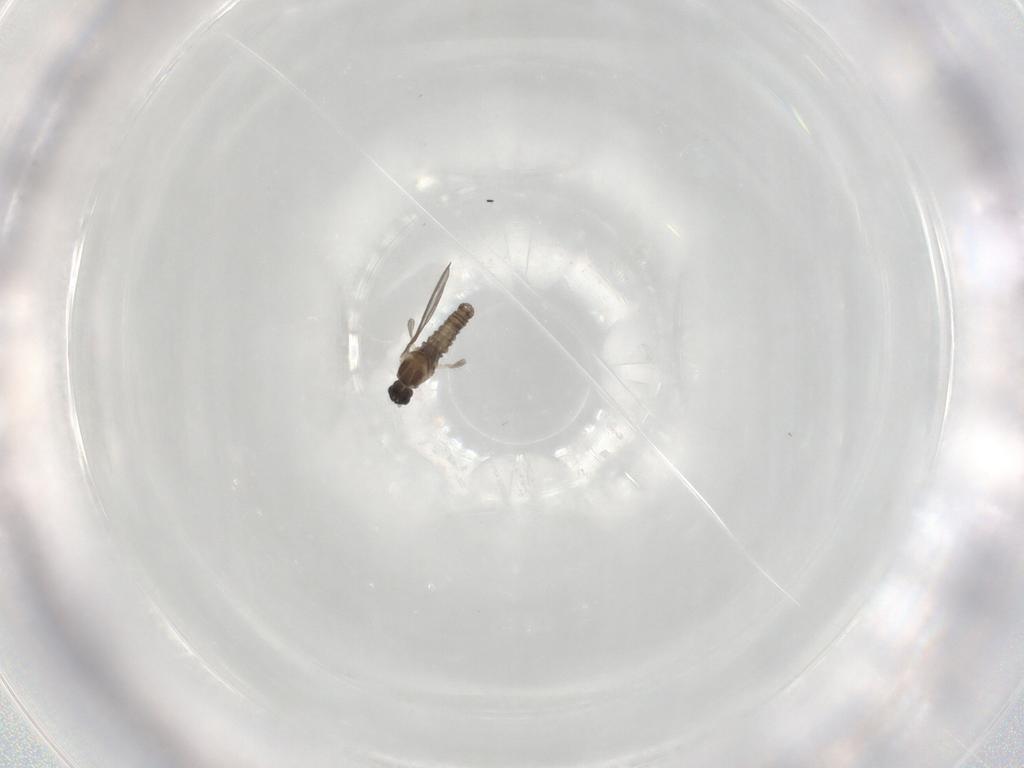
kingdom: Animalia
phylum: Arthropoda
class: Insecta
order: Diptera
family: Cecidomyiidae
